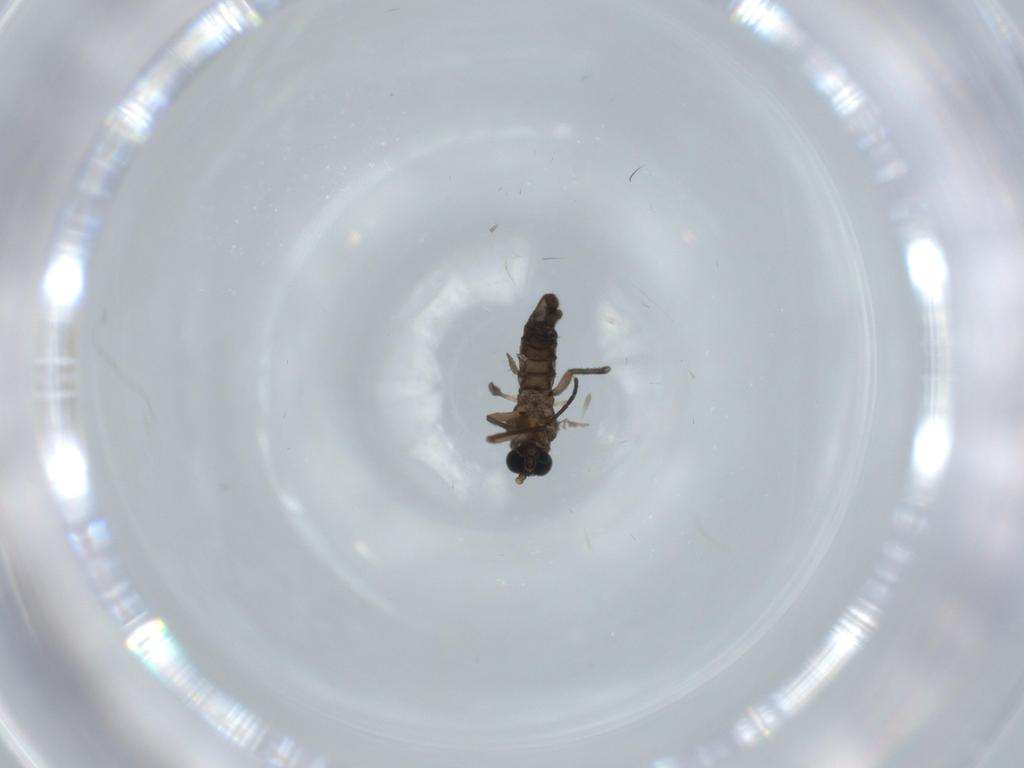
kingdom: Animalia
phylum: Arthropoda
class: Insecta
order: Diptera
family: Sciaridae
